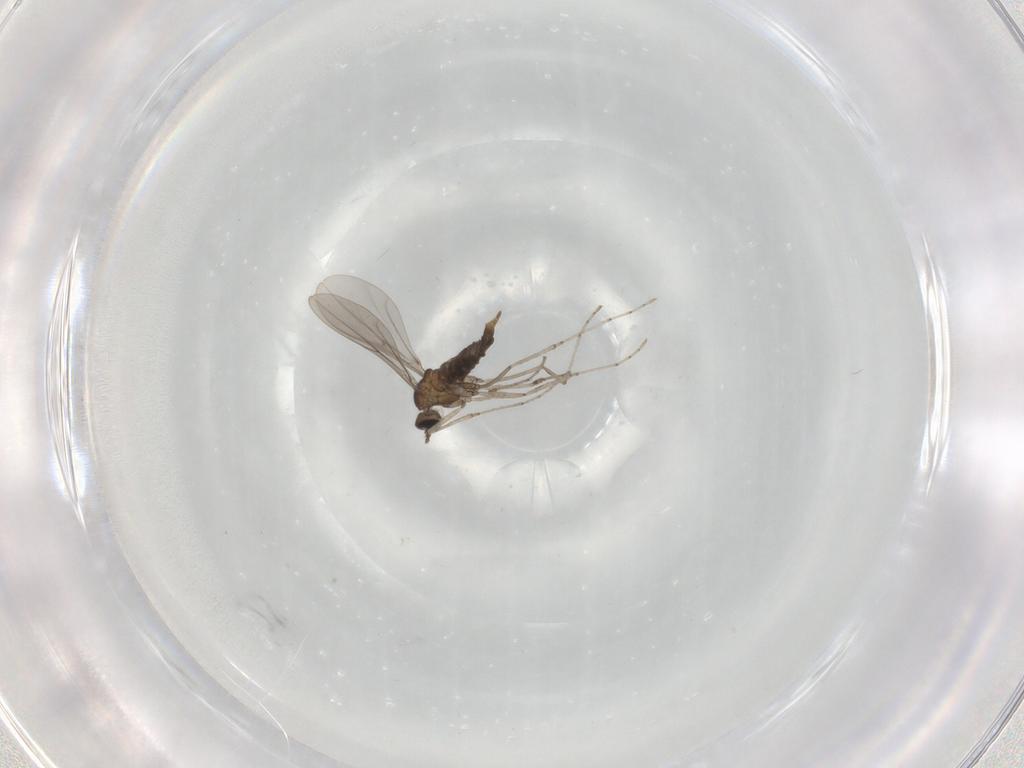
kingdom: Animalia
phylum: Arthropoda
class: Insecta
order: Diptera
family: Cecidomyiidae
